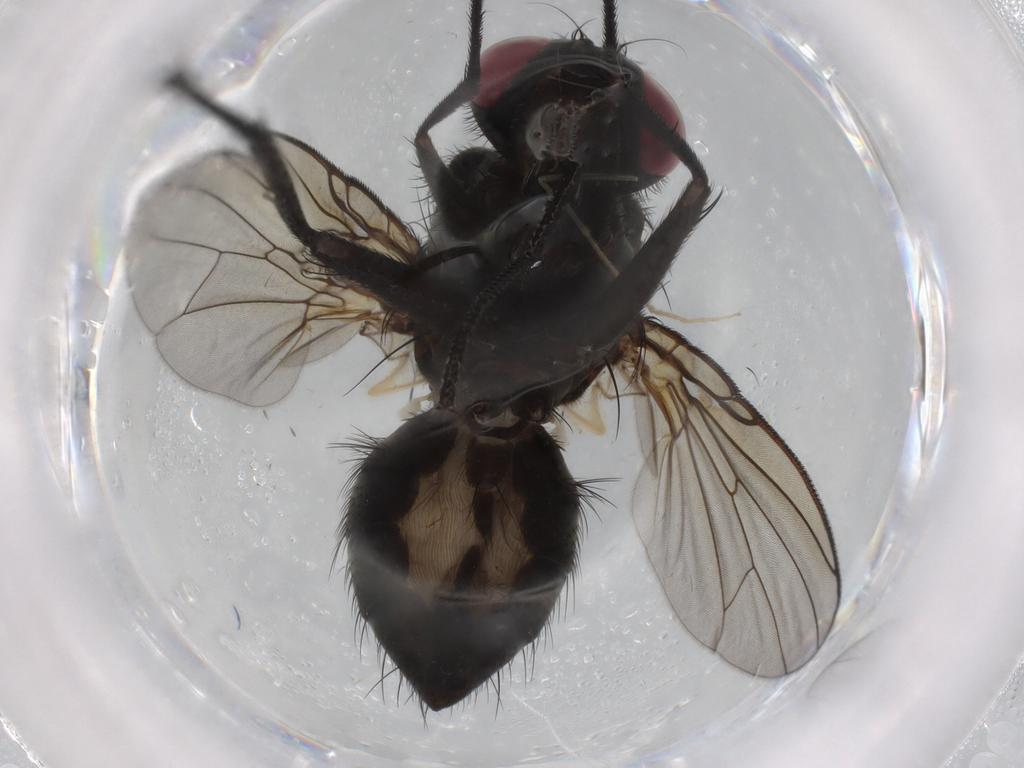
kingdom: Animalia
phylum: Arthropoda
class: Insecta
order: Diptera
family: Muscidae
